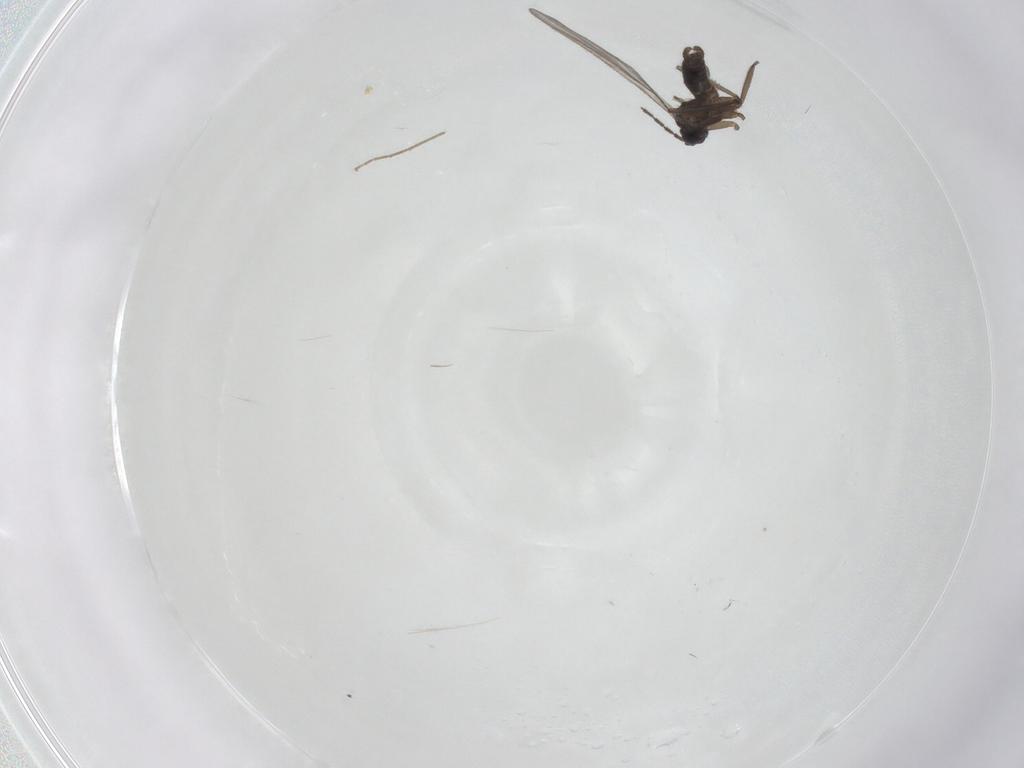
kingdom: Animalia
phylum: Arthropoda
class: Insecta
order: Diptera
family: Sciaridae
